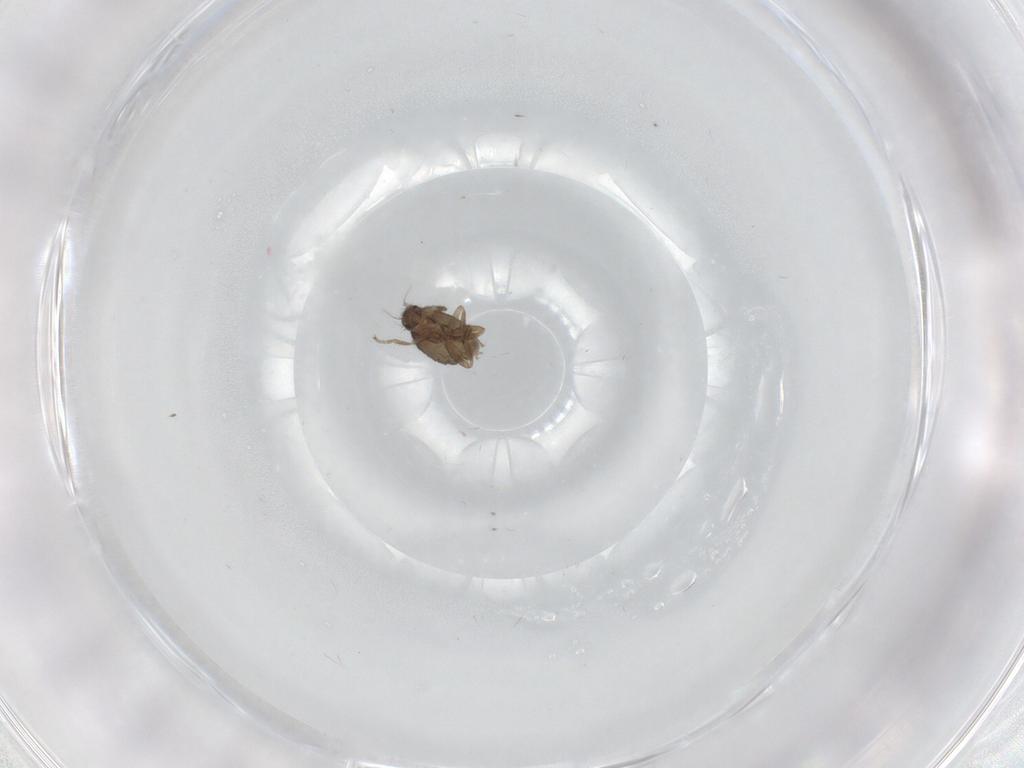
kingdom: Animalia
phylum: Arthropoda
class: Insecta
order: Diptera
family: Phoridae
